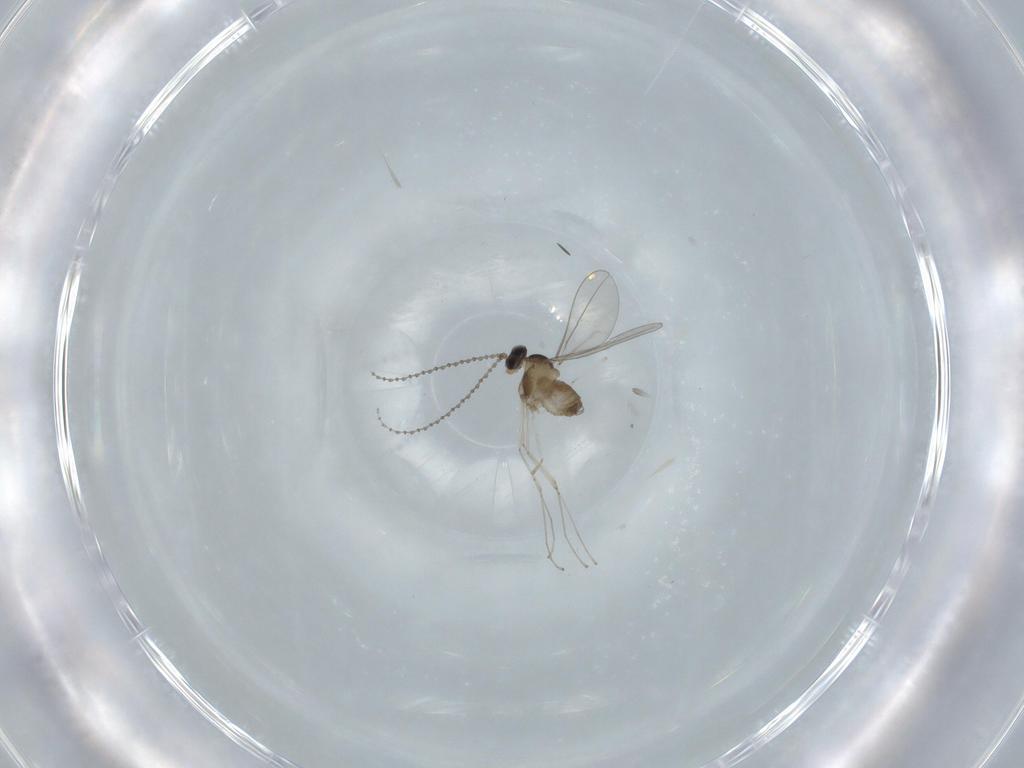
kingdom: Animalia
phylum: Arthropoda
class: Insecta
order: Diptera
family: Cecidomyiidae
